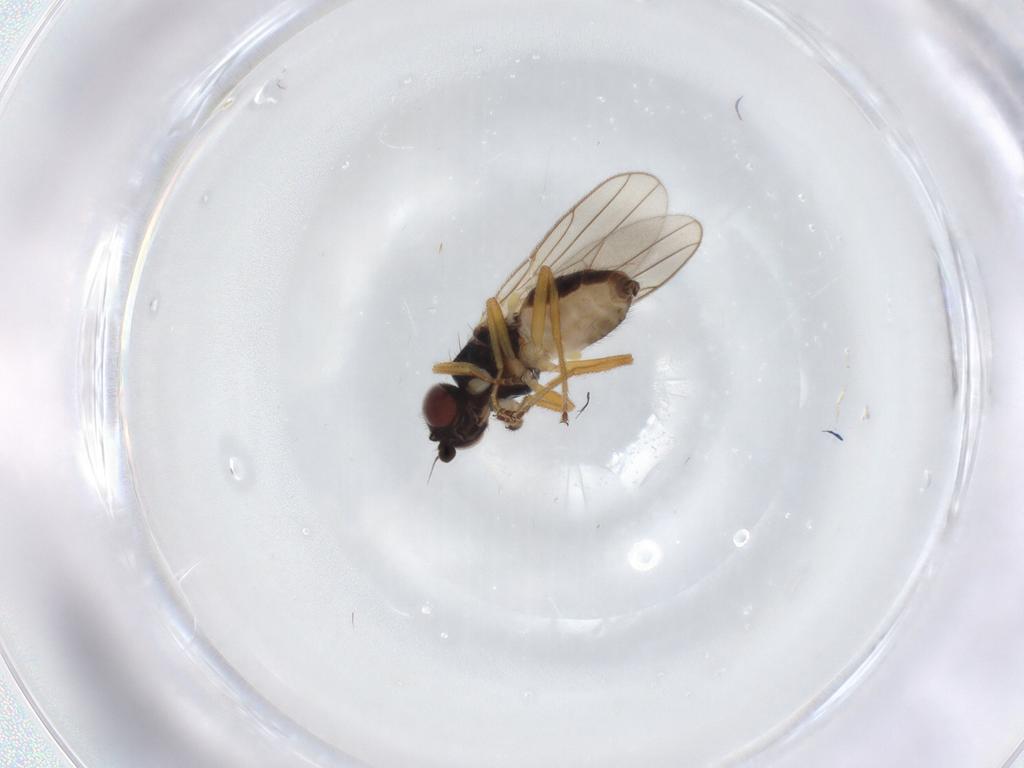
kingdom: Animalia
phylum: Arthropoda
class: Insecta
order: Diptera
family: Chloropidae
